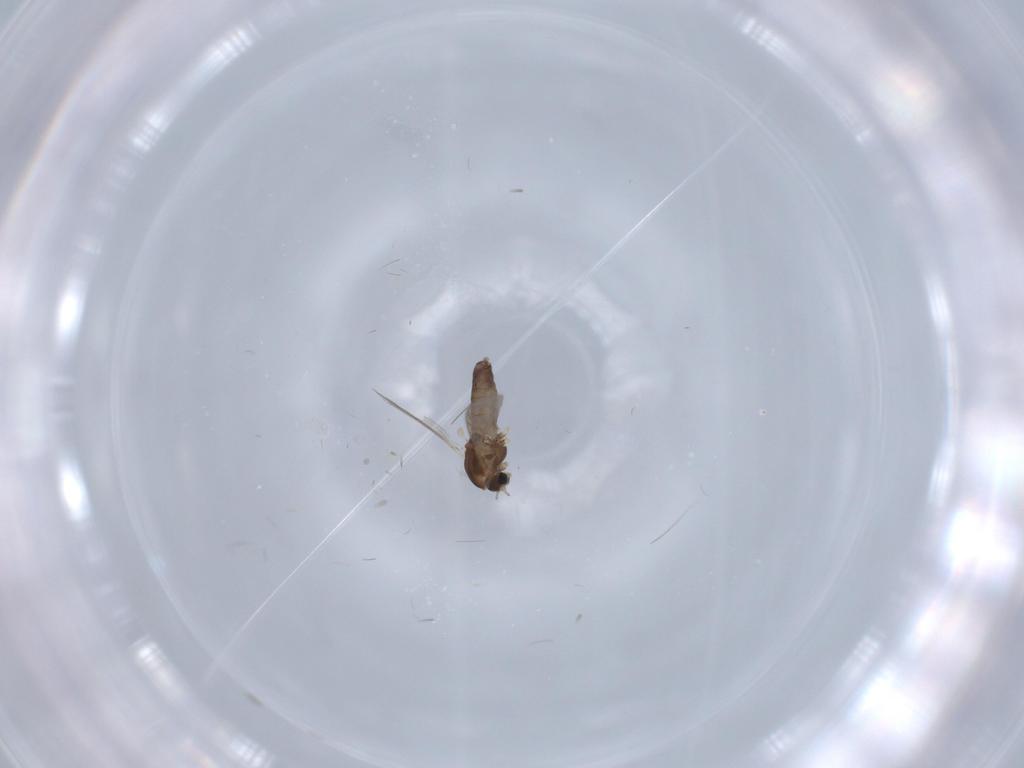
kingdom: Animalia
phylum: Arthropoda
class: Insecta
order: Diptera
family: Chironomidae
